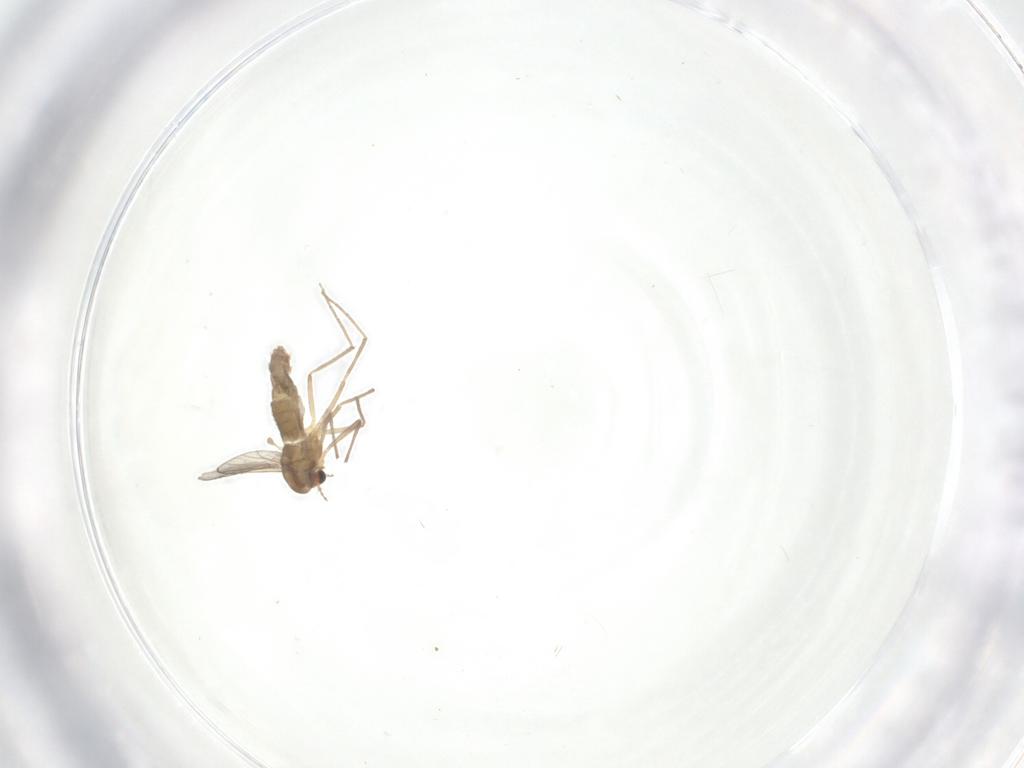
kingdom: Animalia
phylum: Arthropoda
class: Insecta
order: Diptera
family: Chironomidae
